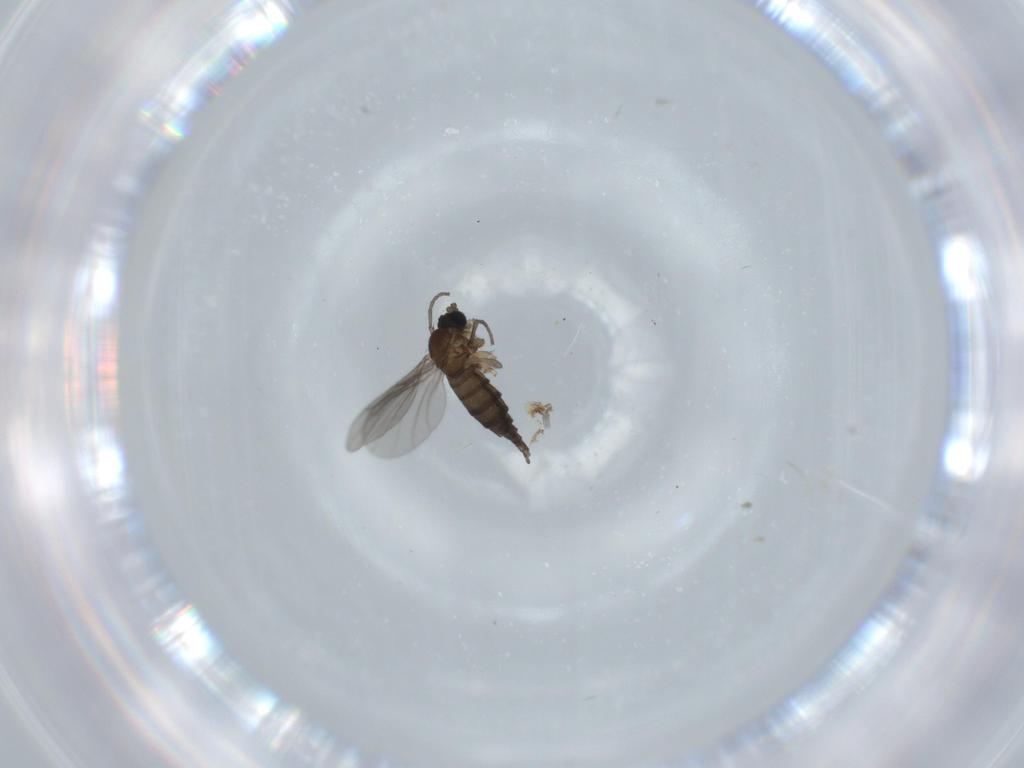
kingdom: Animalia
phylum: Arthropoda
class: Insecta
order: Diptera
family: Sciaridae
